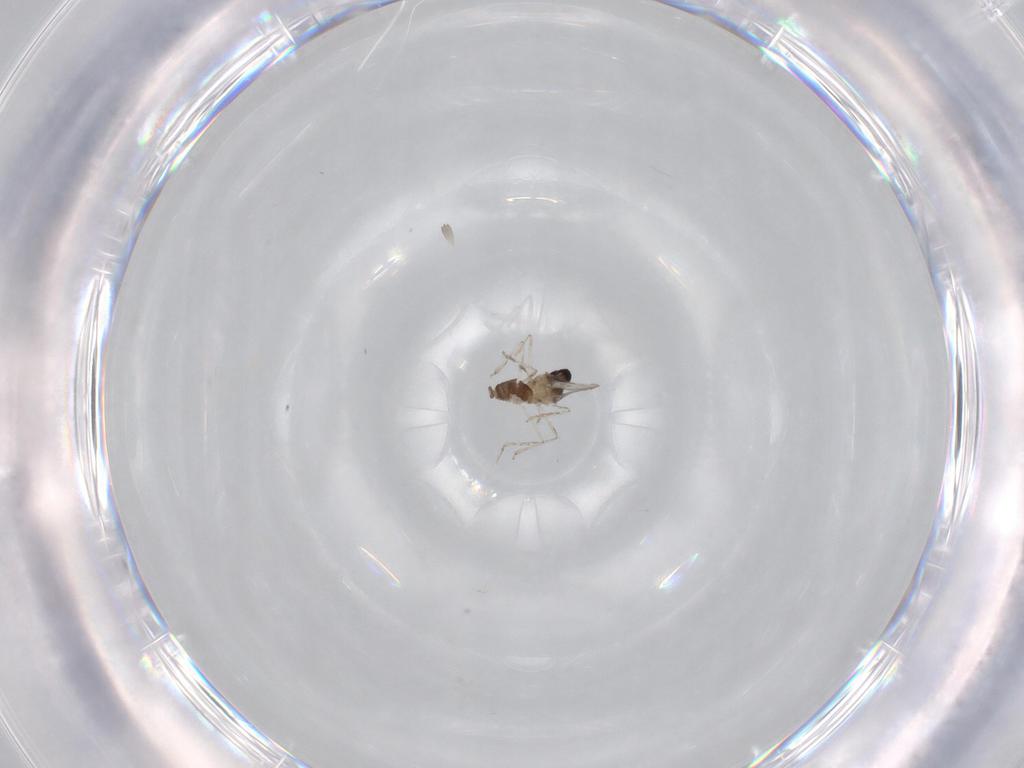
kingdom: Animalia
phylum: Arthropoda
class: Insecta
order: Diptera
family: Cecidomyiidae
